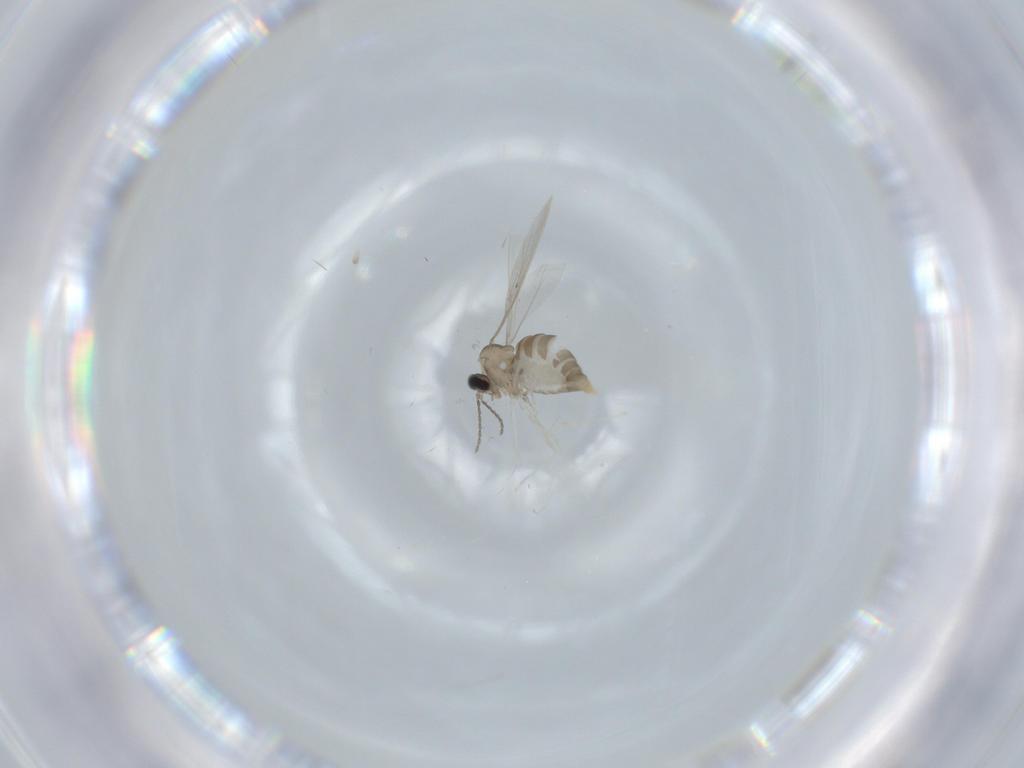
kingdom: Animalia
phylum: Arthropoda
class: Insecta
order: Diptera
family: Cecidomyiidae
